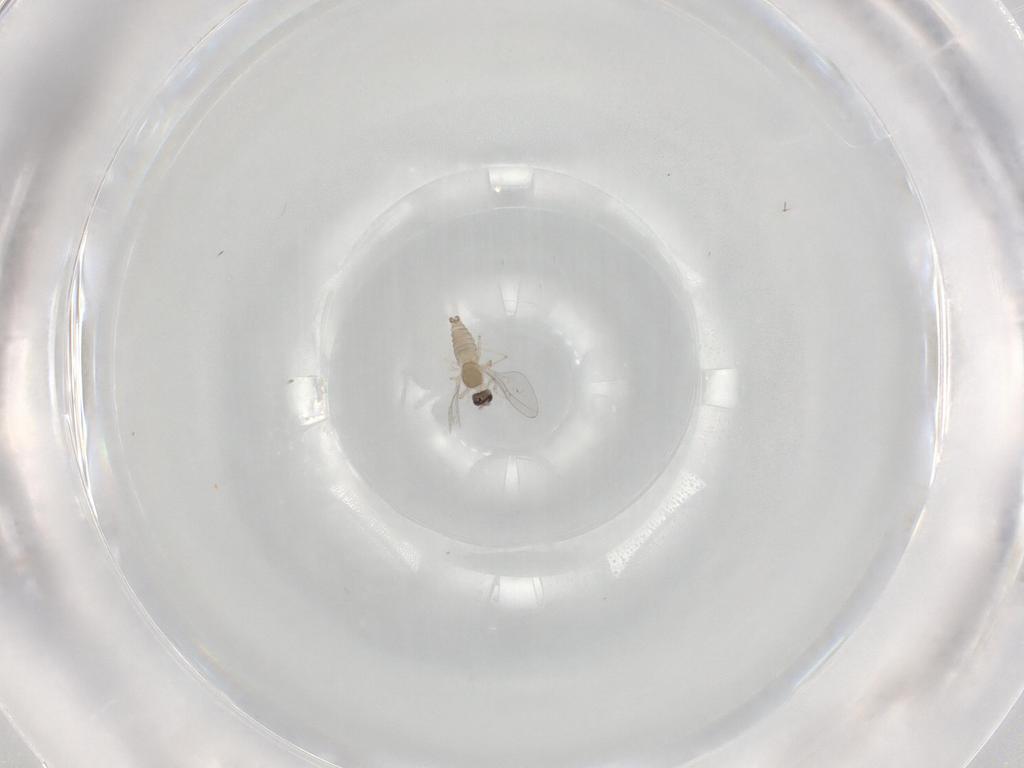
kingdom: Animalia
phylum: Arthropoda
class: Insecta
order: Diptera
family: Cecidomyiidae
